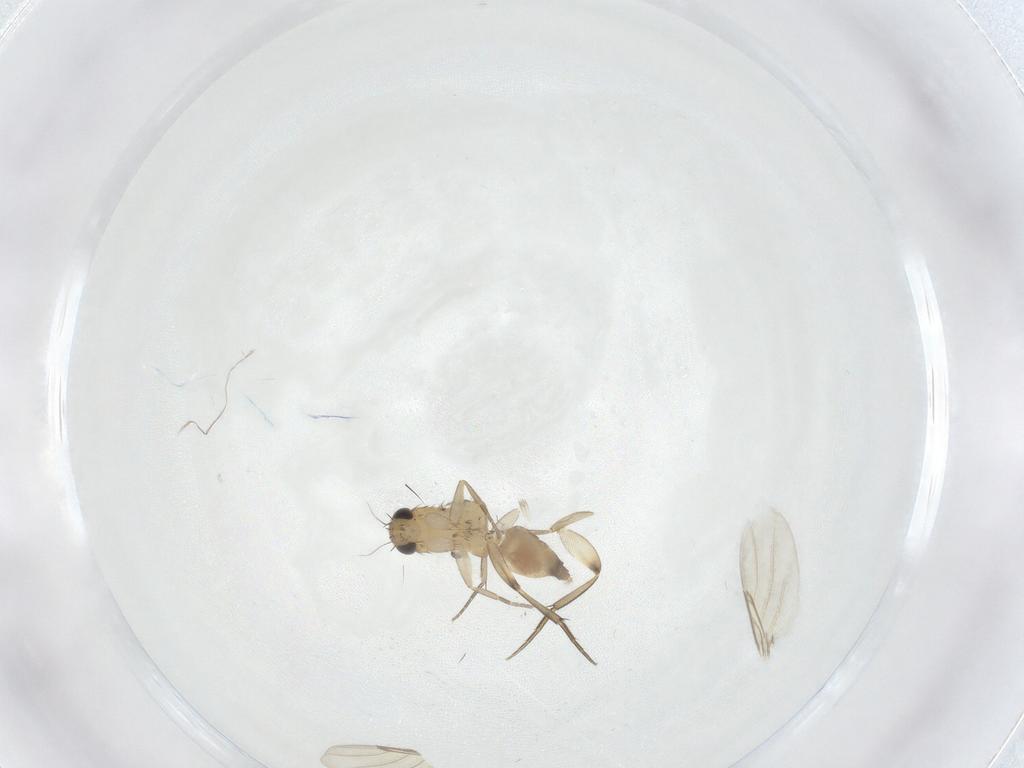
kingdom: Animalia
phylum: Arthropoda
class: Insecta
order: Diptera
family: Phoridae
